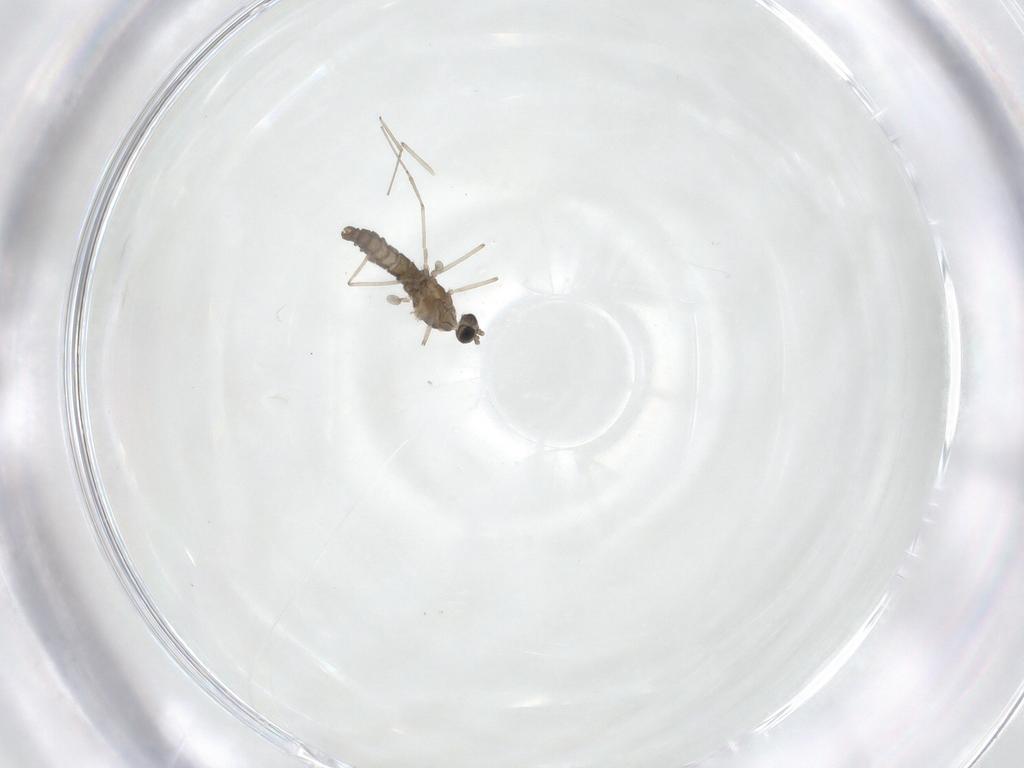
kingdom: Animalia
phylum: Arthropoda
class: Insecta
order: Diptera
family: Cecidomyiidae
